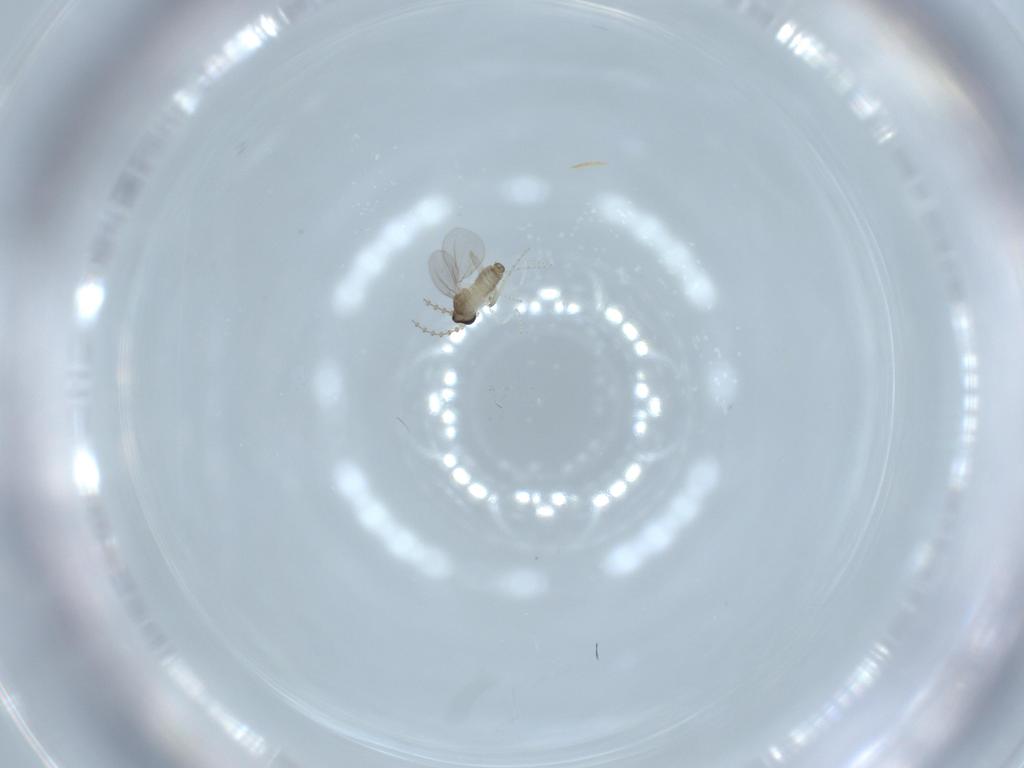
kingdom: Animalia
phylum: Arthropoda
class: Insecta
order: Diptera
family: Cecidomyiidae
